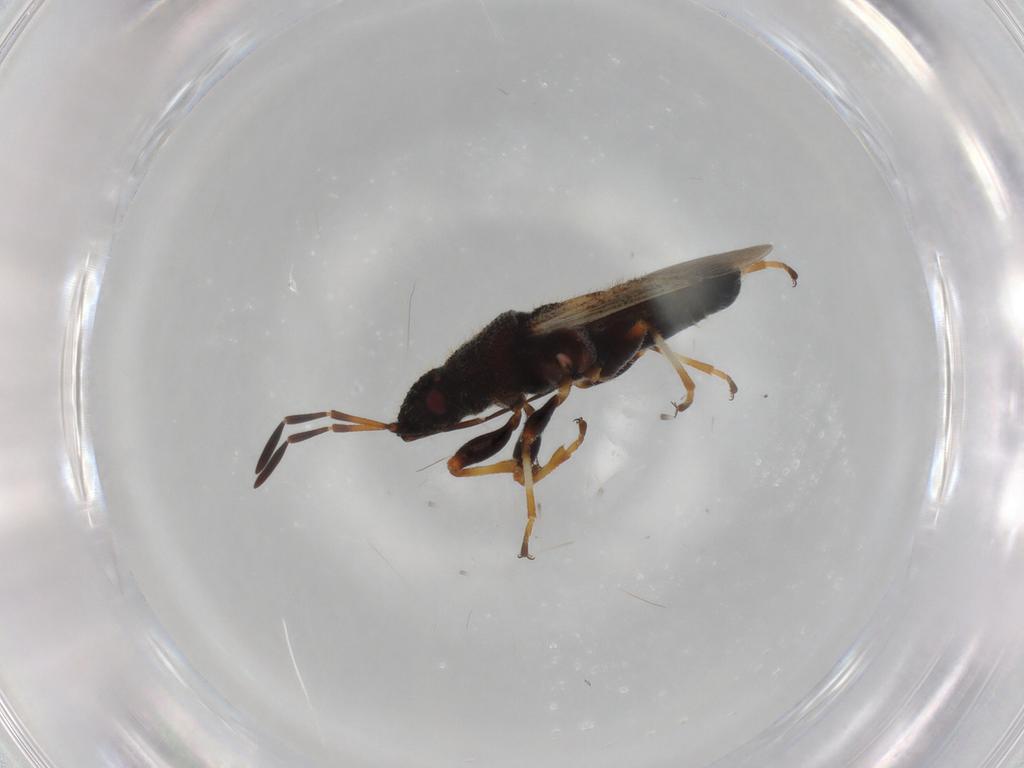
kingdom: Animalia
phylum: Arthropoda
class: Insecta
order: Hemiptera
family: Oxycarenidae
